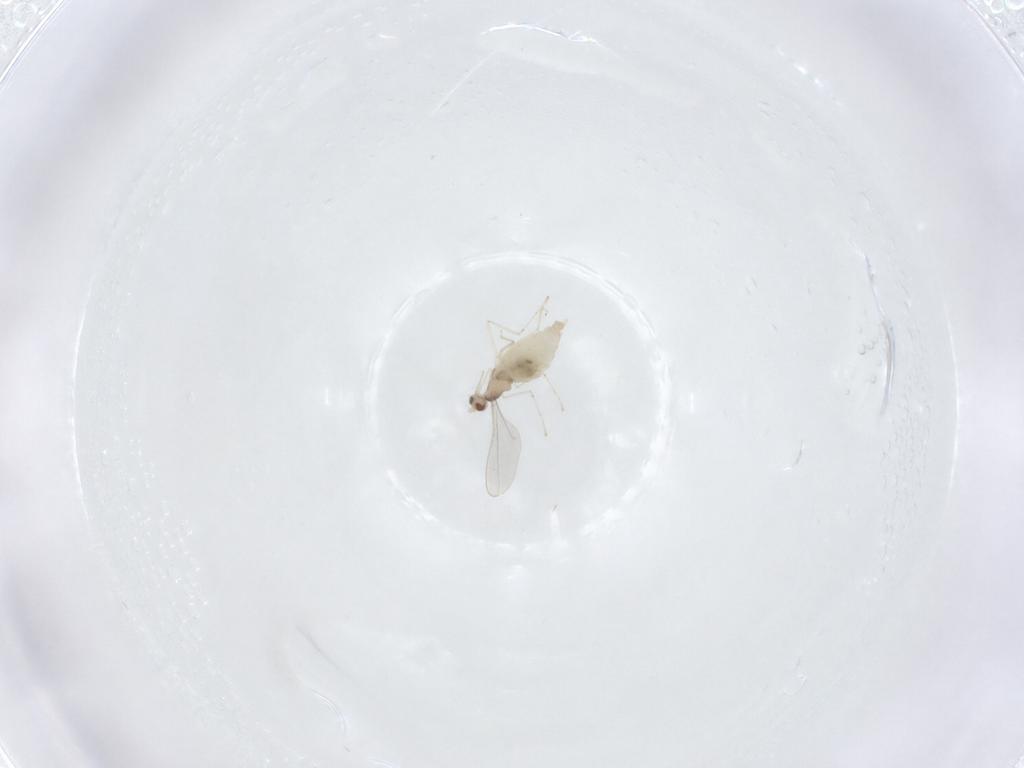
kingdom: Animalia
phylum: Arthropoda
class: Insecta
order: Diptera
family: Cecidomyiidae
